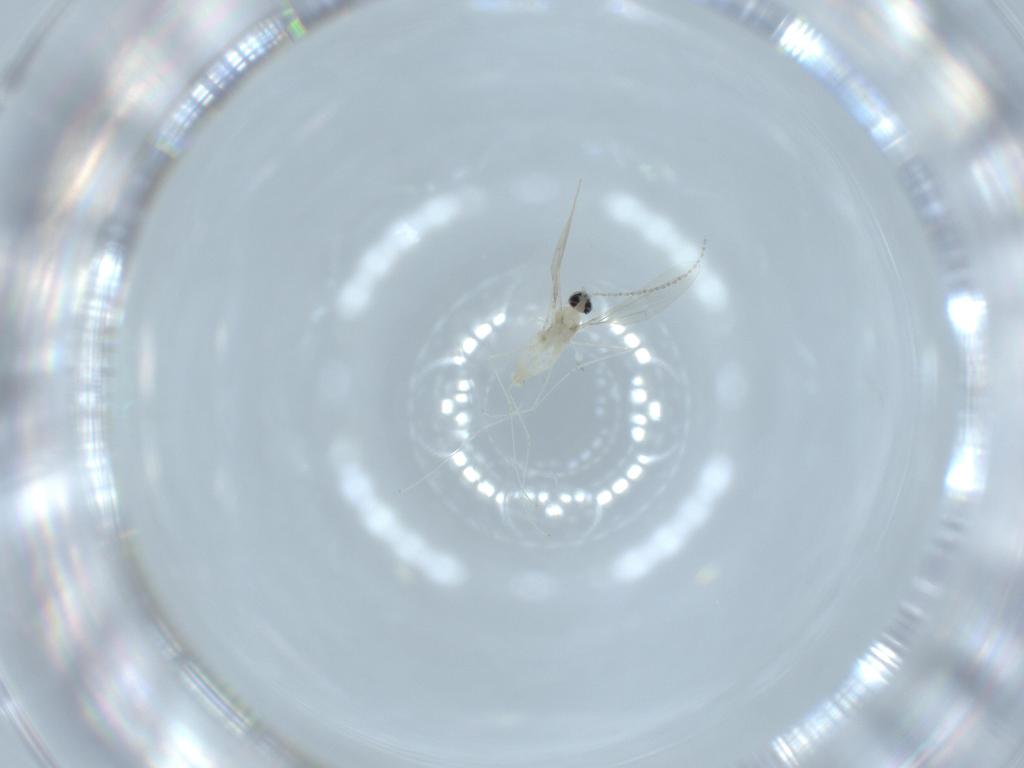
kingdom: Animalia
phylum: Arthropoda
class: Insecta
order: Diptera
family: Cecidomyiidae
